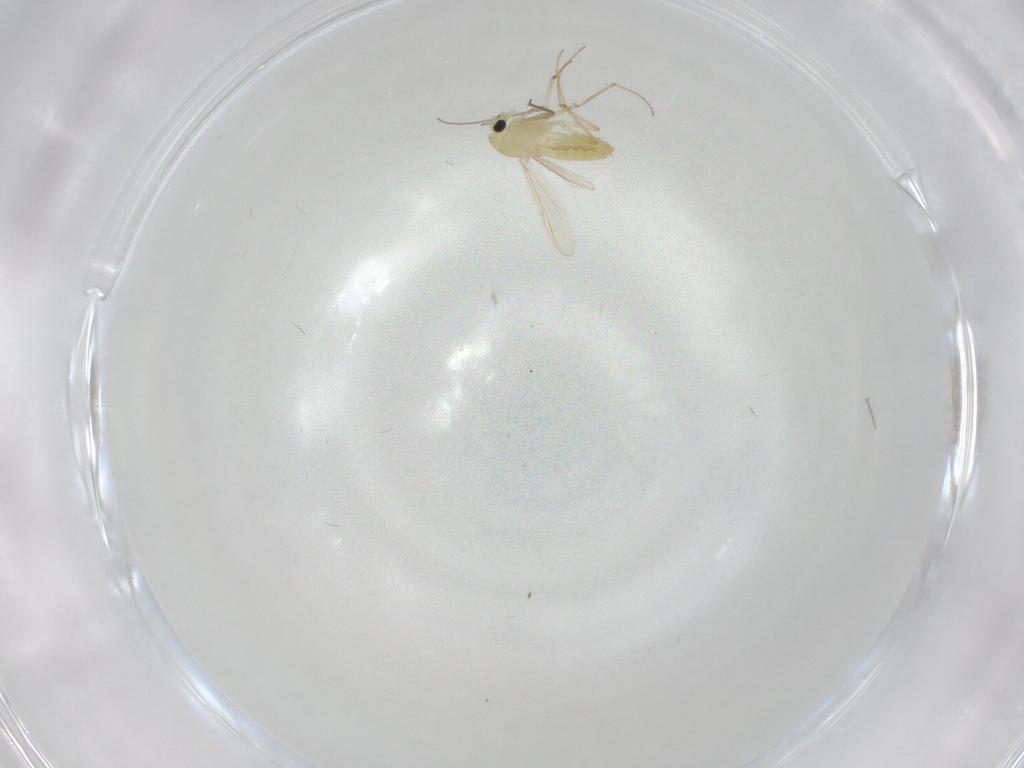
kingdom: Animalia
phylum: Arthropoda
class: Insecta
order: Diptera
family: Chironomidae
